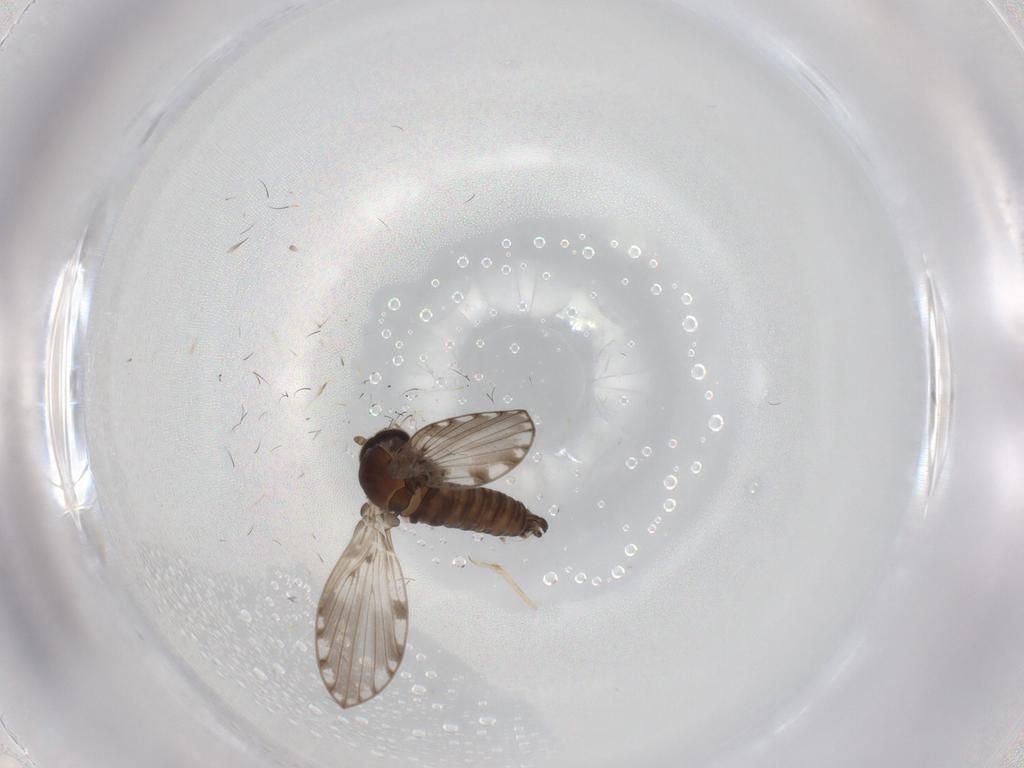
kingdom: Animalia
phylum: Arthropoda
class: Insecta
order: Diptera
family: Psychodidae
